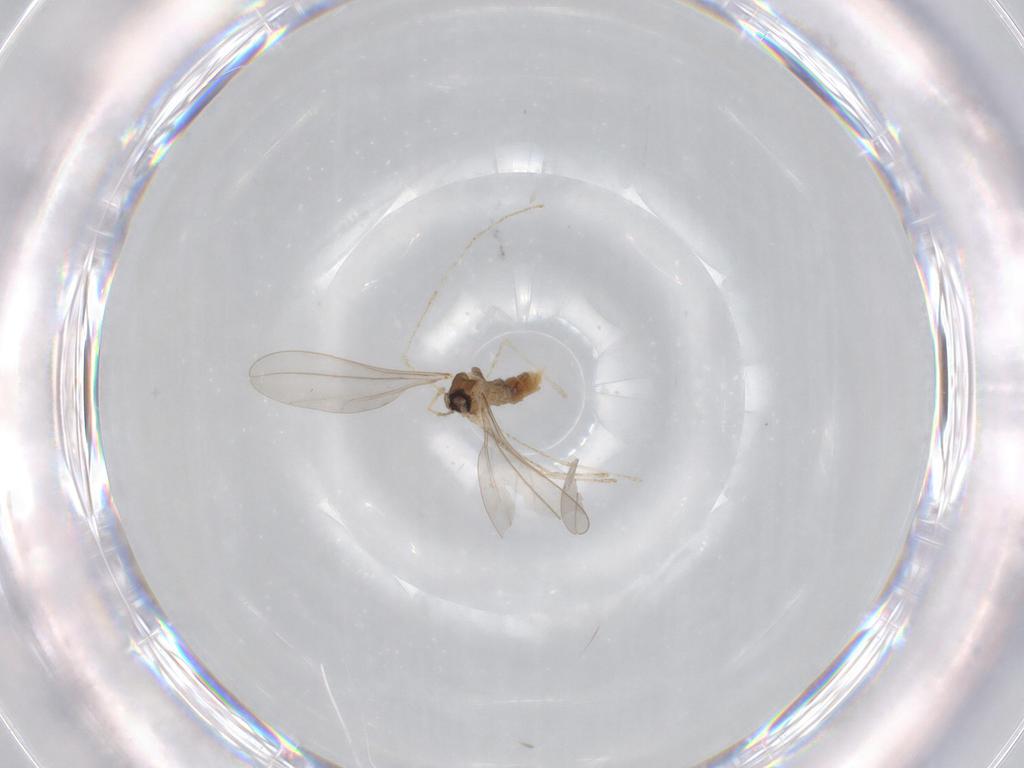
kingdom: Animalia
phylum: Arthropoda
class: Insecta
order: Diptera
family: Cecidomyiidae
